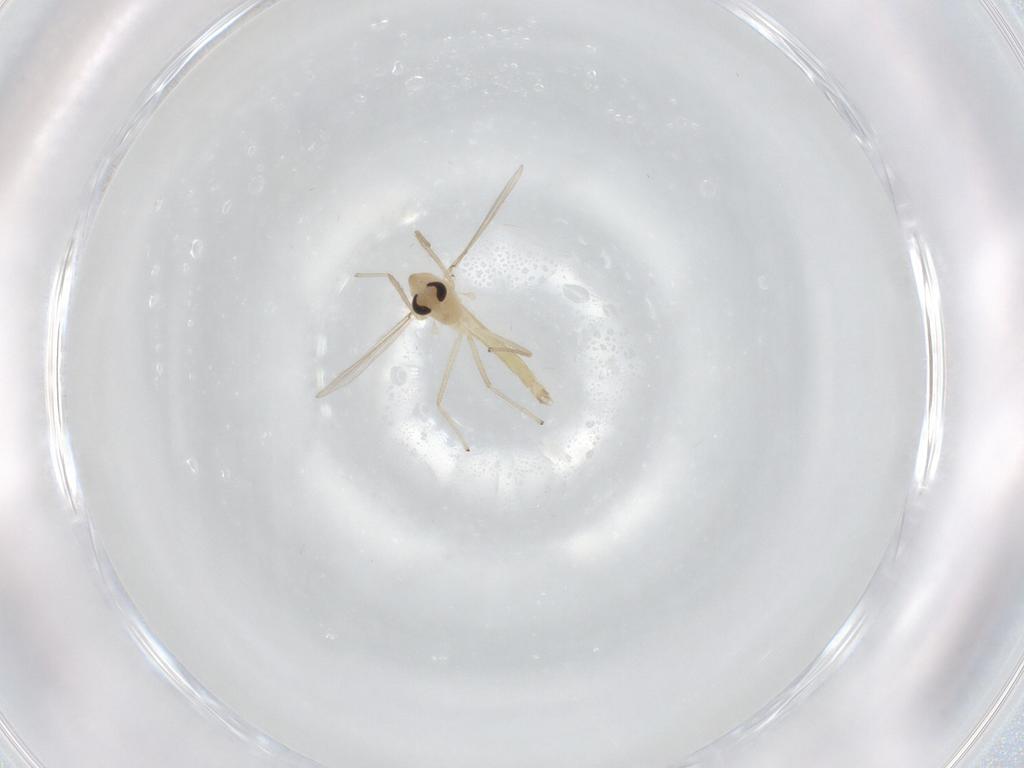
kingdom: Animalia
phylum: Arthropoda
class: Insecta
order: Diptera
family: Chironomidae
